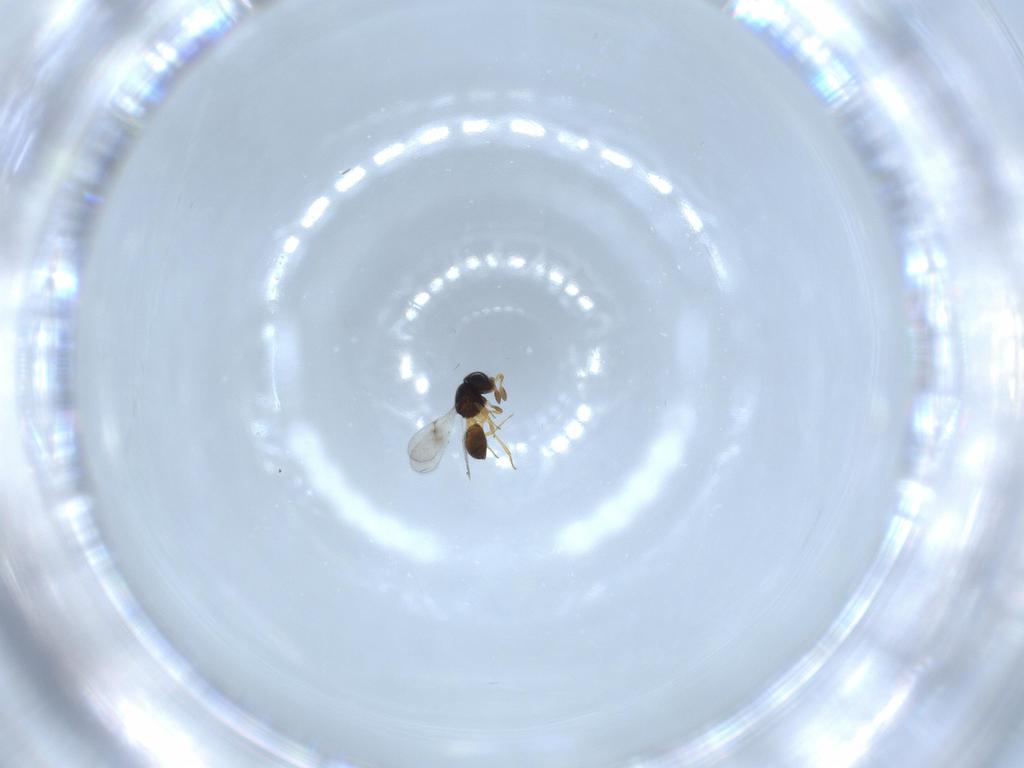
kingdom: Animalia
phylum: Arthropoda
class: Insecta
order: Hymenoptera
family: Scelionidae
